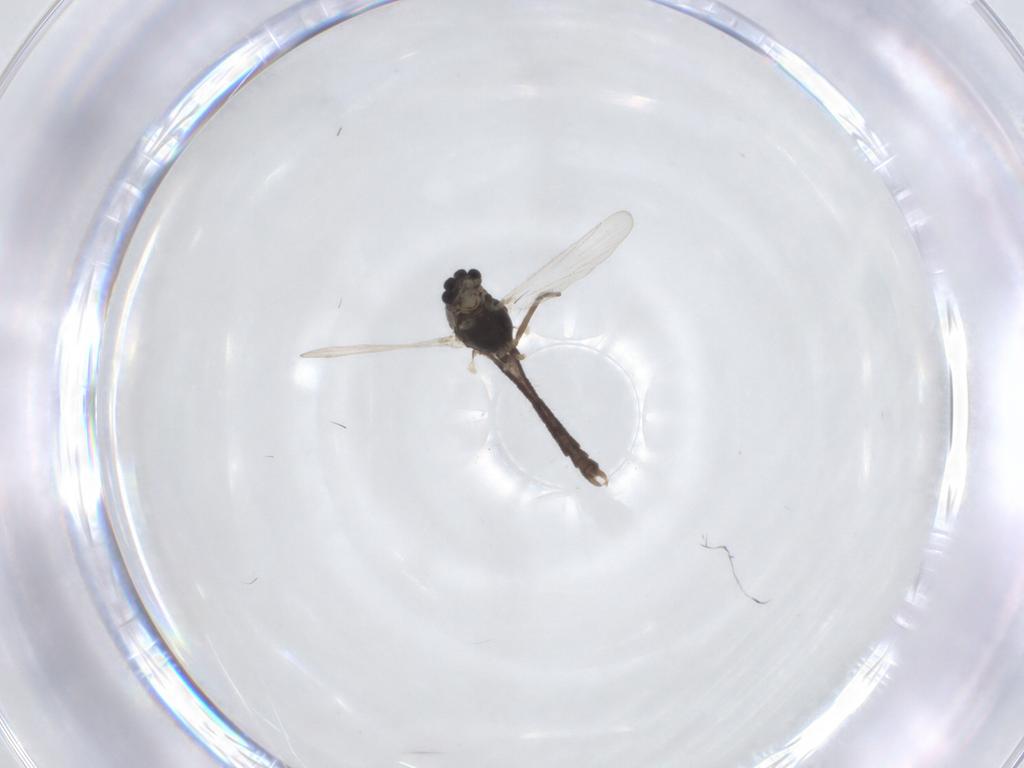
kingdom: Animalia
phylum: Arthropoda
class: Insecta
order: Diptera
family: Chironomidae
